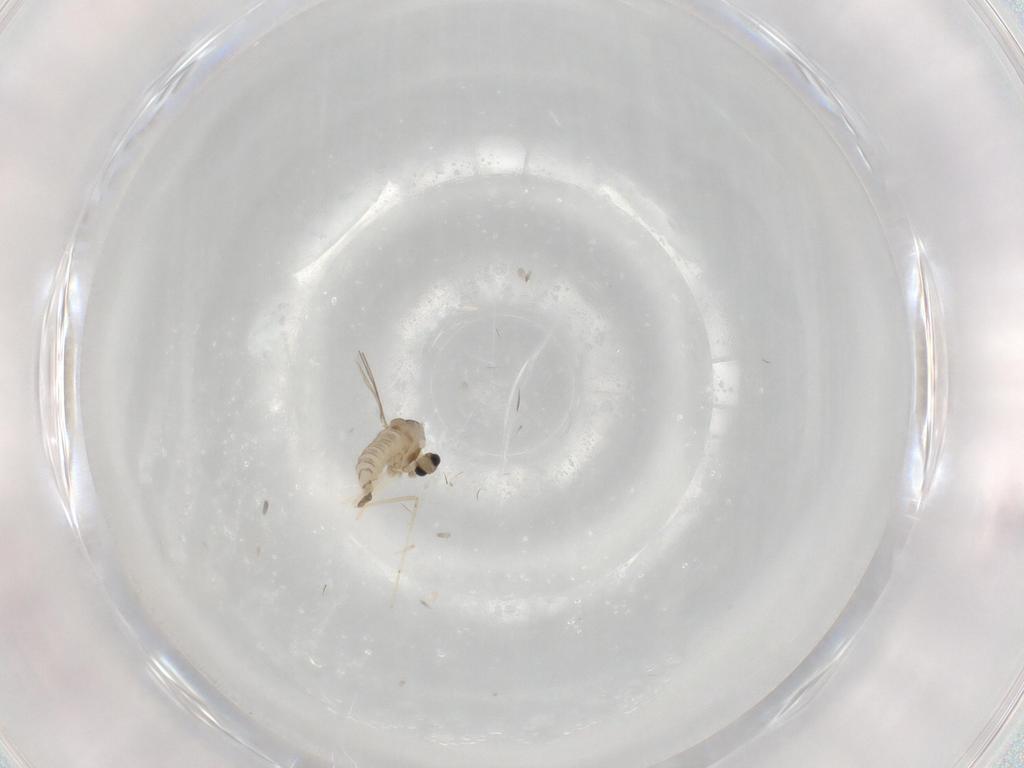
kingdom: Animalia
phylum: Arthropoda
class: Insecta
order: Diptera
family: Cecidomyiidae
